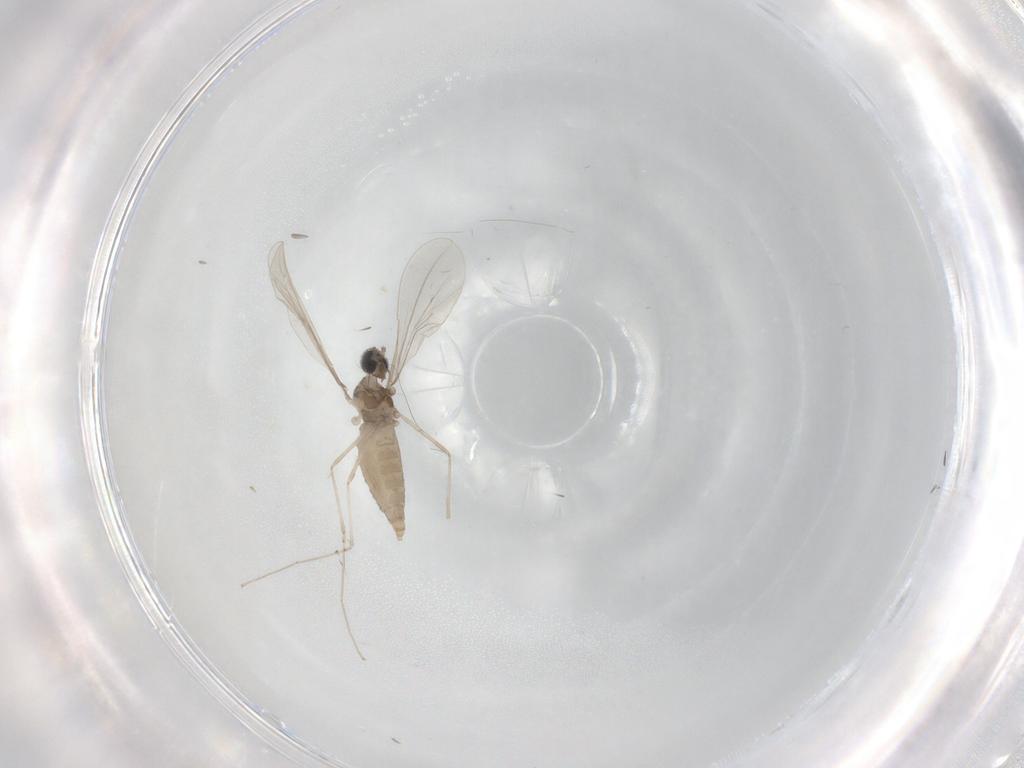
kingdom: Animalia
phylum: Arthropoda
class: Insecta
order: Diptera
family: Cecidomyiidae
